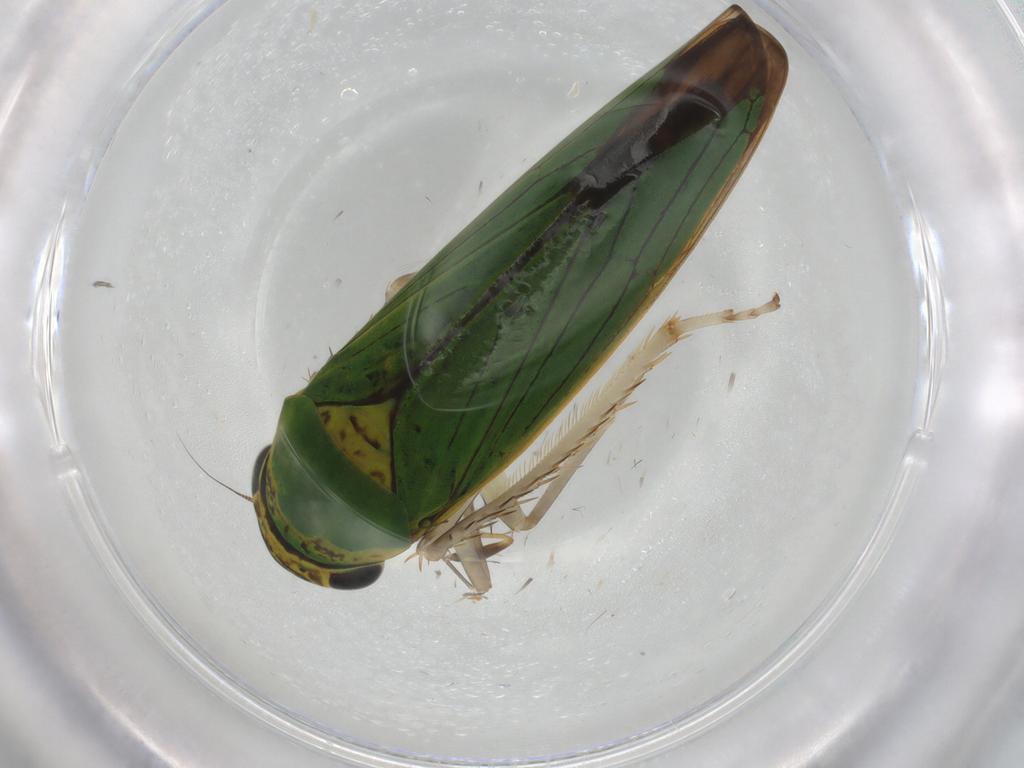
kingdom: Animalia
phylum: Arthropoda
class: Insecta
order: Hemiptera
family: Cicadellidae
